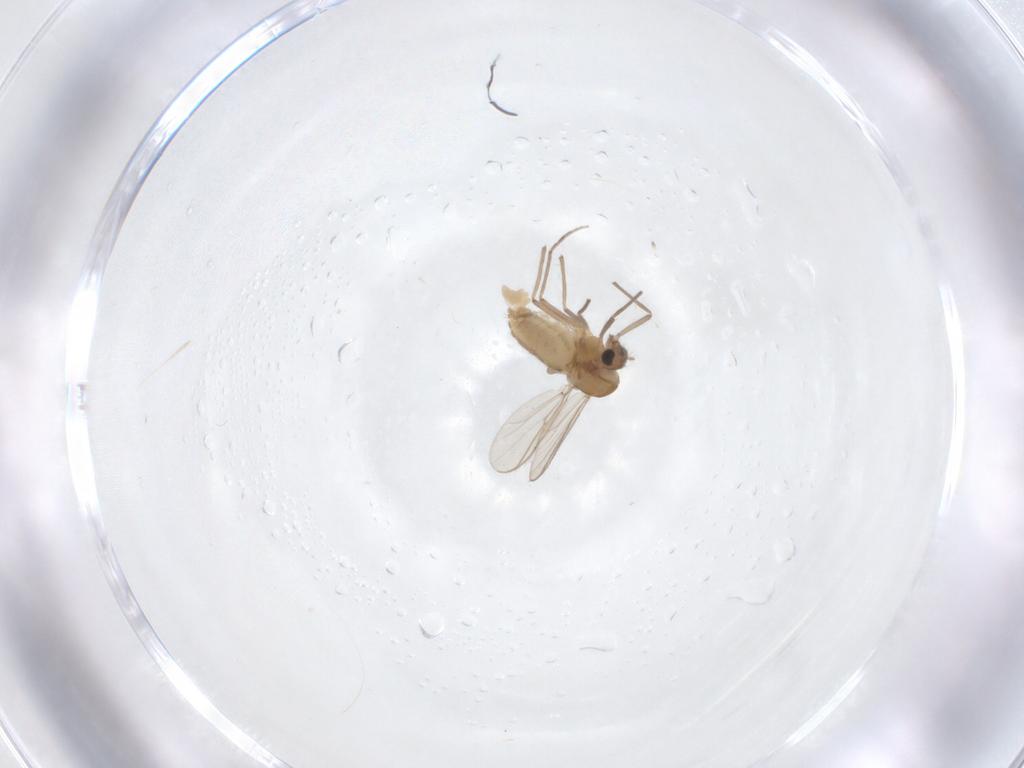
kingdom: Animalia
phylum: Arthropoda
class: Insecta
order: Diptera
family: Chironomidae
